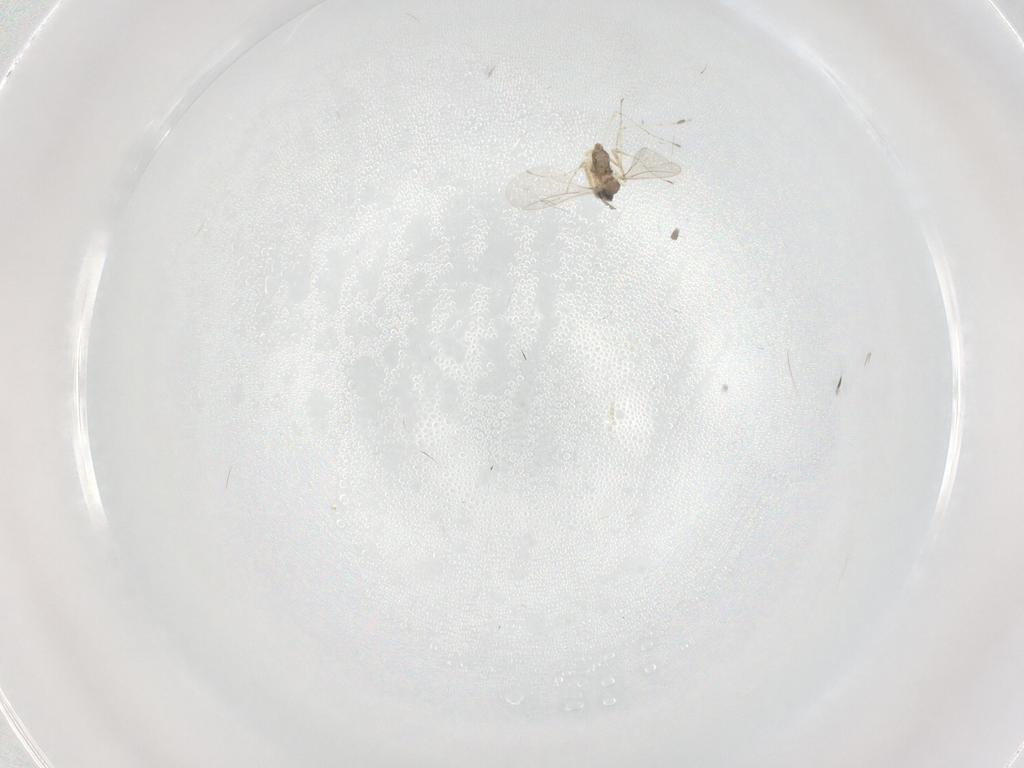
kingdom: Animalia
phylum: Arthropoda
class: Insecta
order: Diptera
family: Cecidomyiidae
